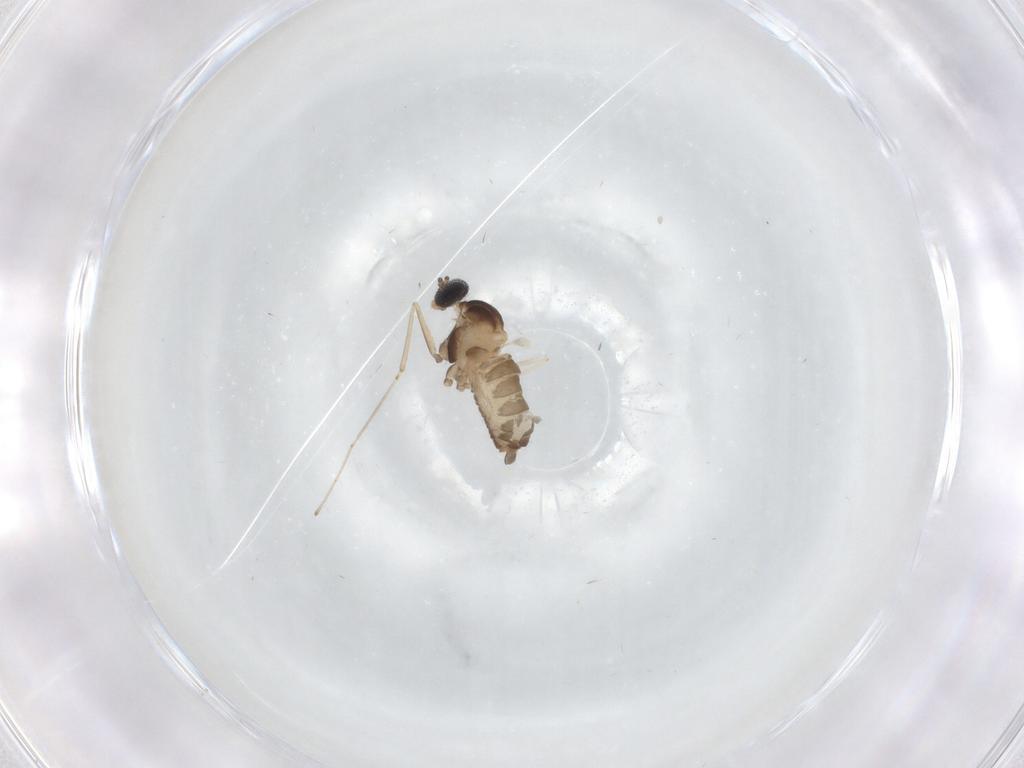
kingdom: Animalia
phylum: Arthropoda
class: Insecta
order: Diptera
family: Cecidomyiidae
